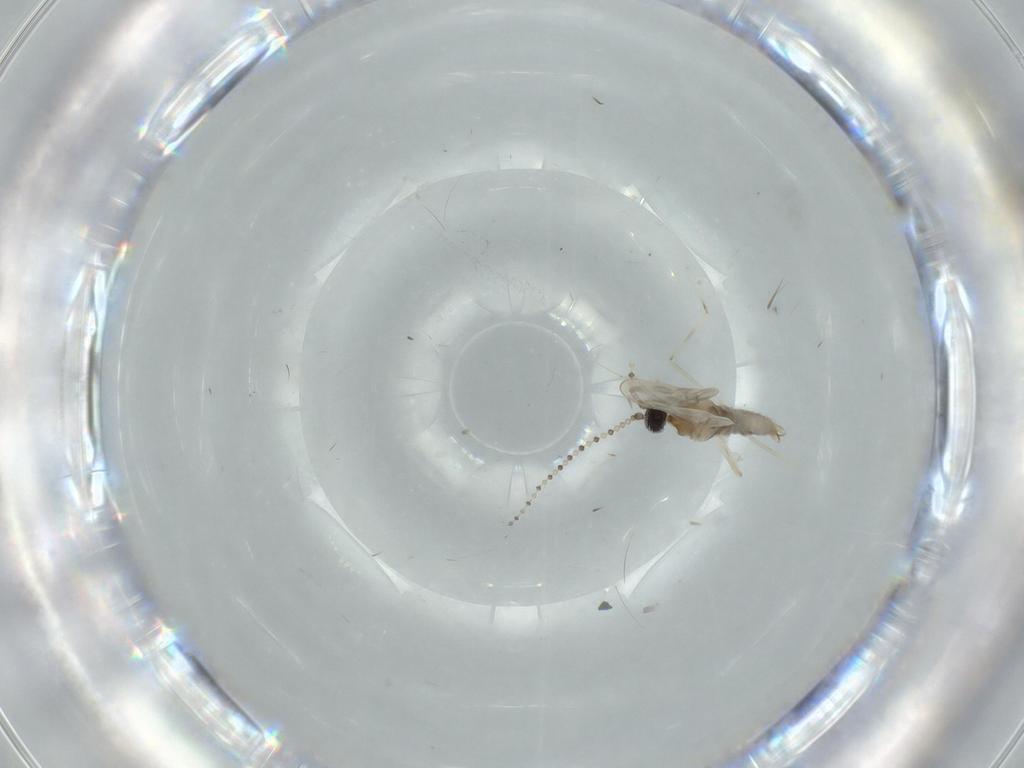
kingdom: Animalia
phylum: Arthropoda
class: Insecta
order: Diptera
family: Cecidomyiidae
